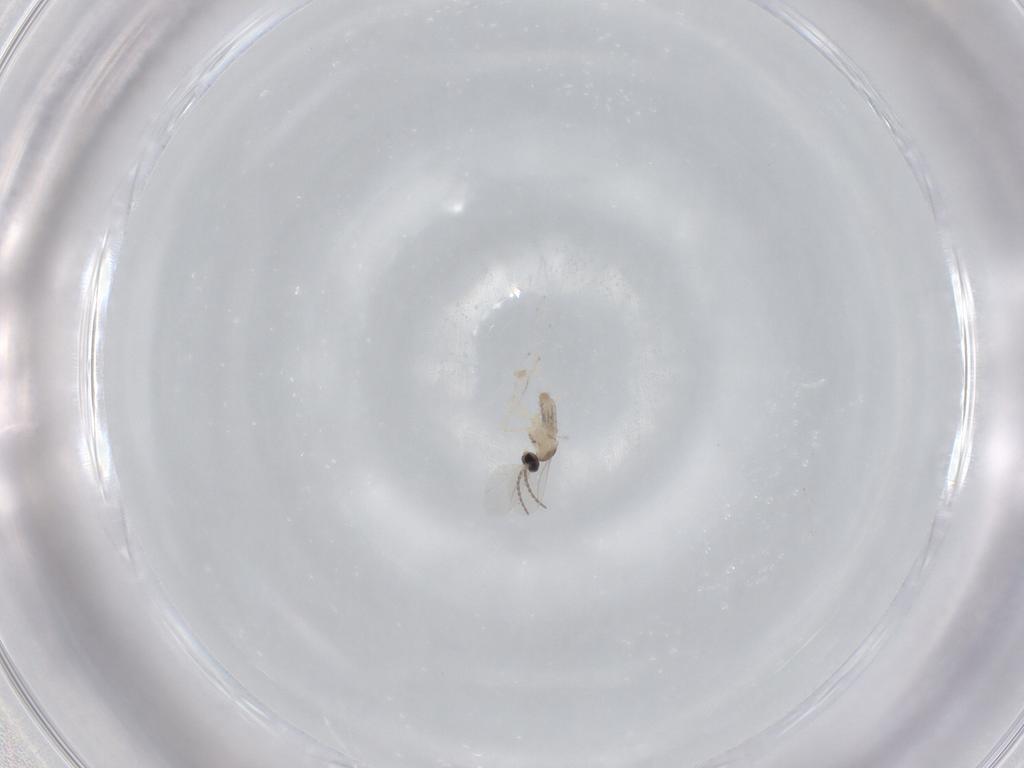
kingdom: Animalia
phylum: Arthropoda
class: Insecta
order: Diptera
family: Cecidomyiidae
